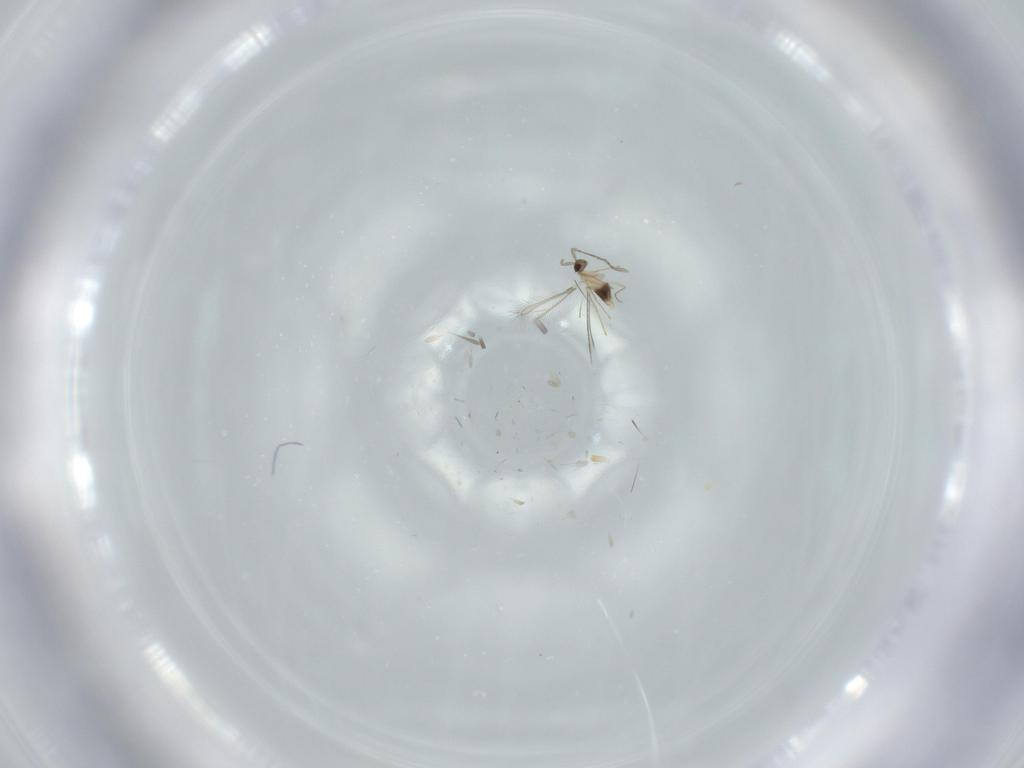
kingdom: Animalia
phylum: Arthropoda
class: Insecta
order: Hymenoptera
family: Mymaridae
